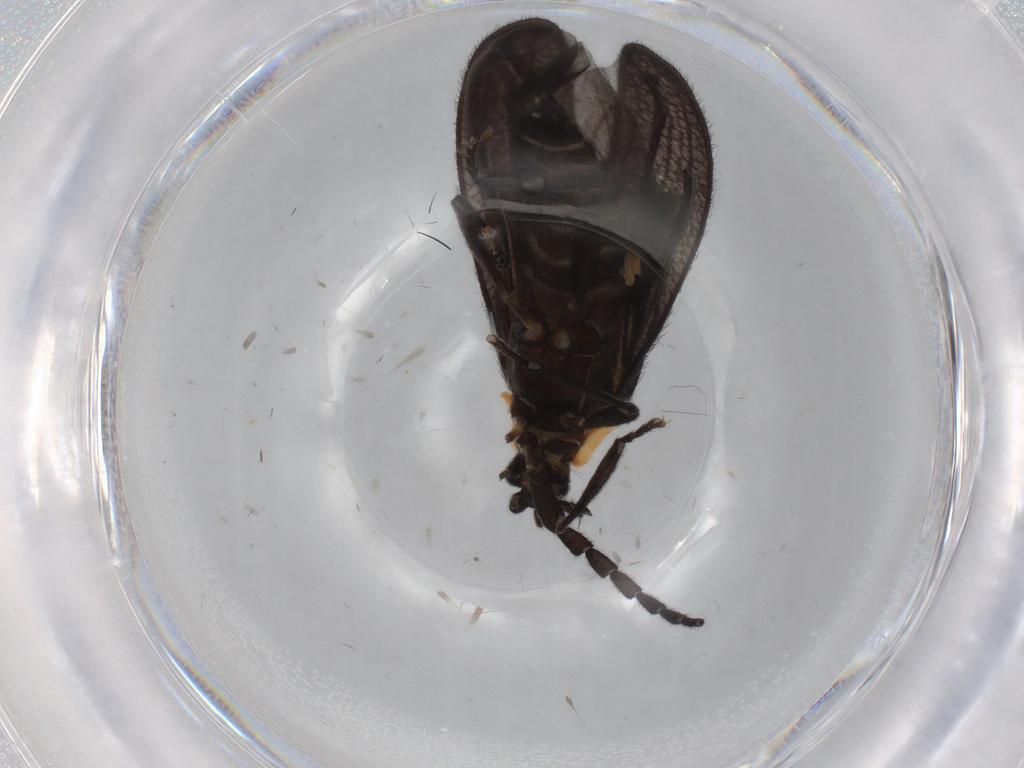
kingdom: Animalia
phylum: Arthropoda
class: Insecta
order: Coleoptera
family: Lycidae
